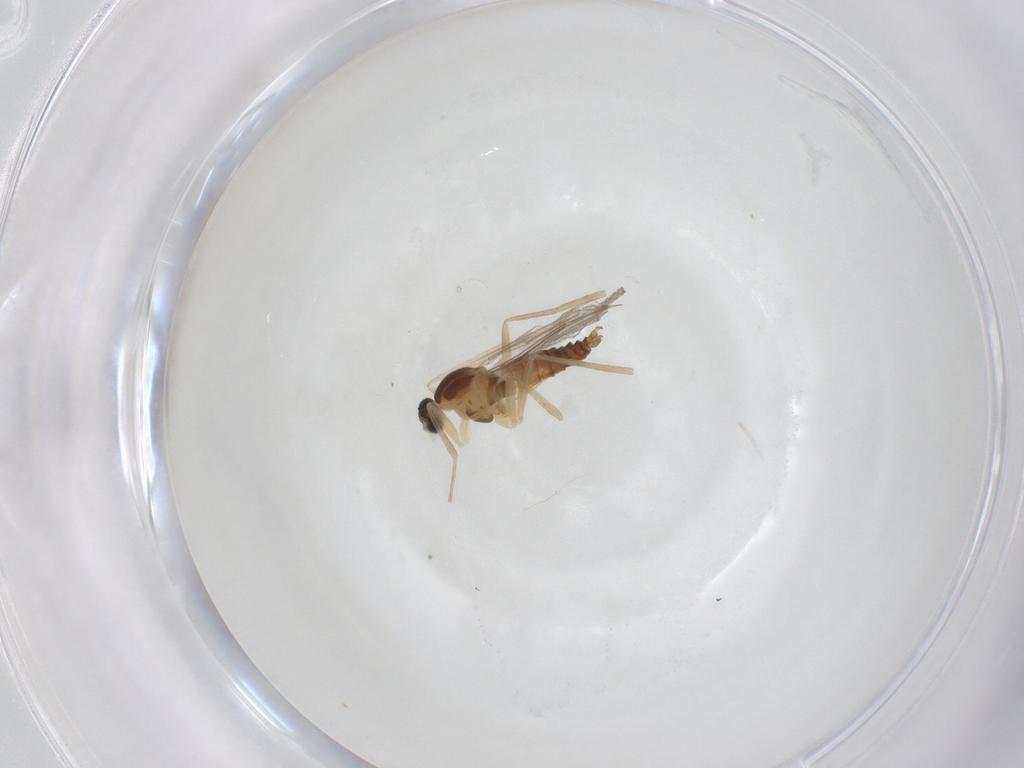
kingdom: Animalia
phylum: Arthropoda
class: Insecta
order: Diptera
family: Cecidomyiidae
